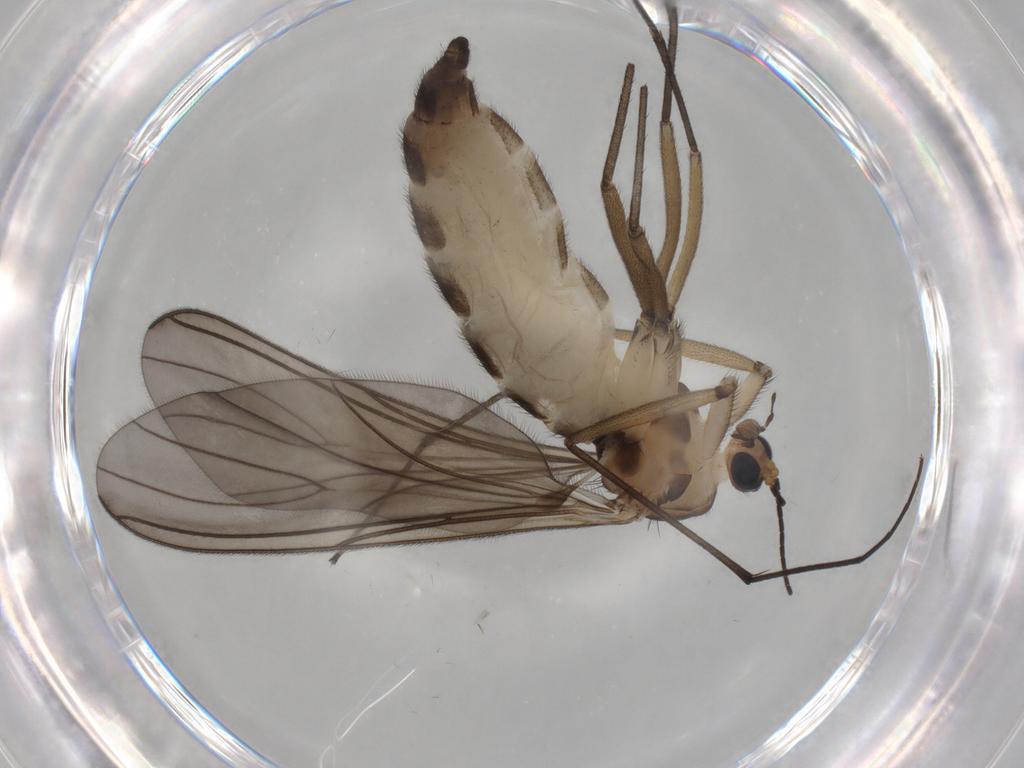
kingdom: Animalia
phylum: Arthropoda
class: Insecta
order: Diptera
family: Sciaridae
